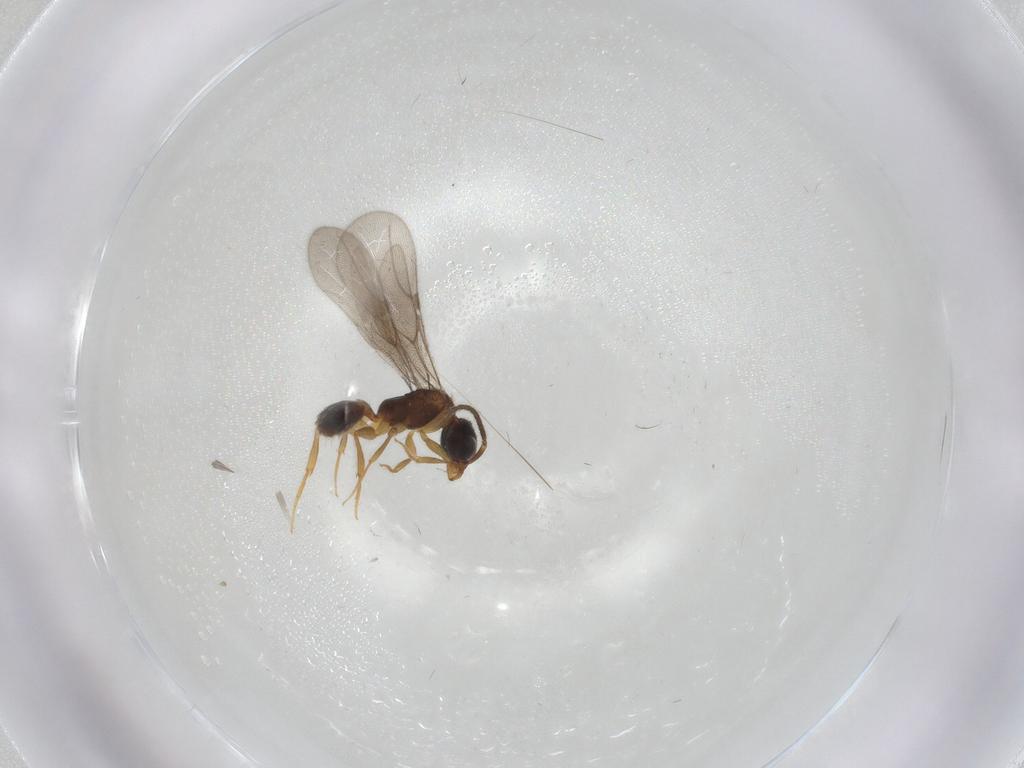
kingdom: Animalia
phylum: Arthropoda
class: Insecta
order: Hymenoptera
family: Bethylidae
